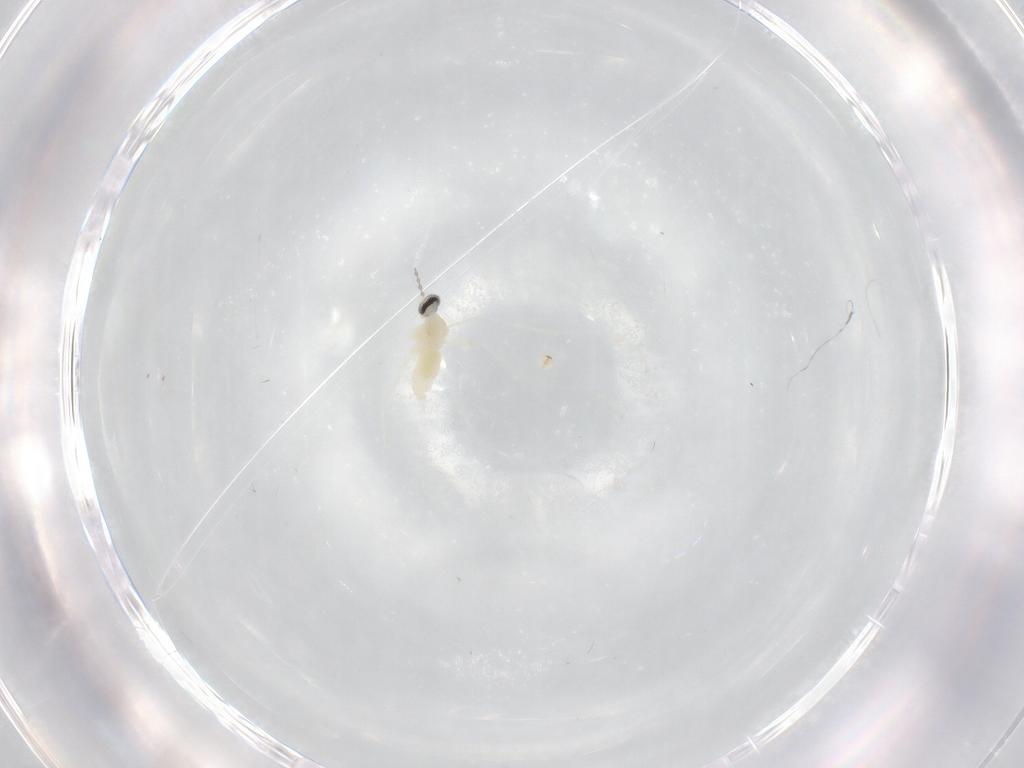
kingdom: Animalia
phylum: Arthropoda
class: Insecta
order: Diptera
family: Cecidomyiidae
